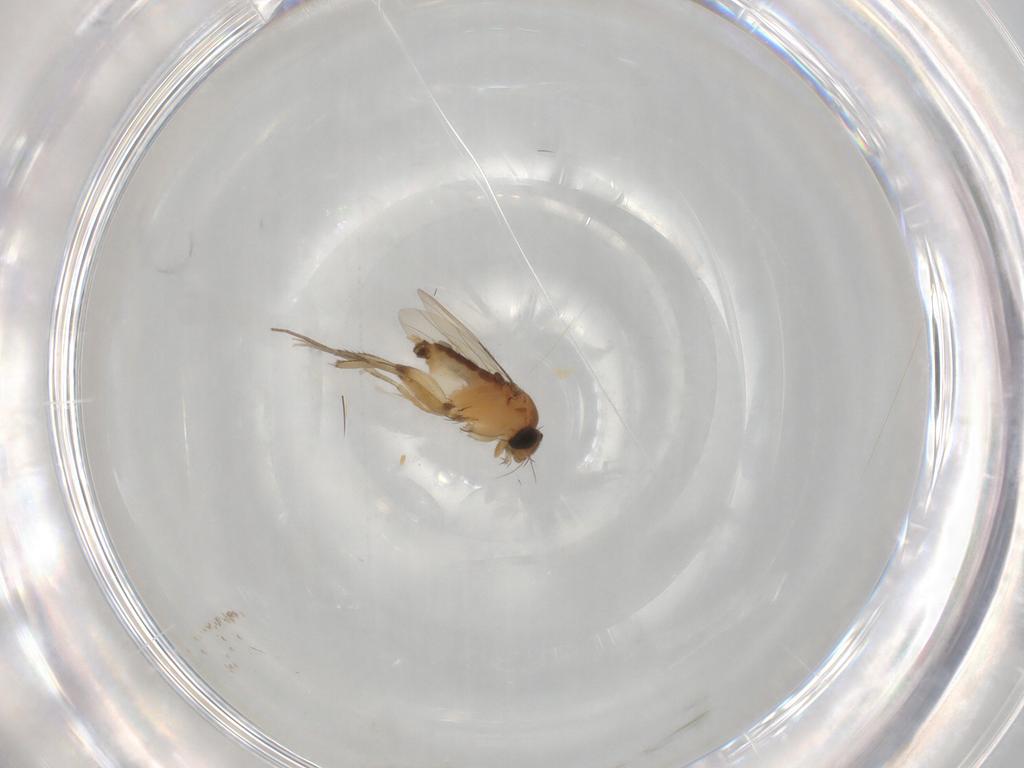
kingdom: Animalia
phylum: Arthropoda
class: Insecta
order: Diptera
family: Phoridae
